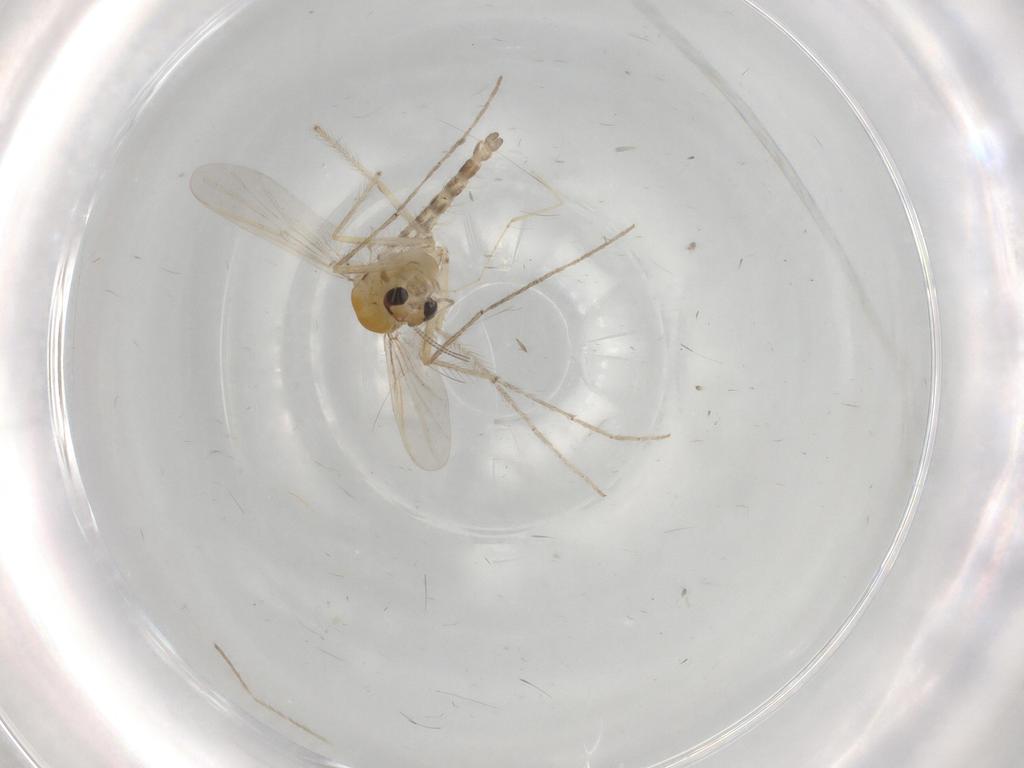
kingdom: Animalia
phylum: Arthropoda
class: Insecta
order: Diptera
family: Chironomidae
